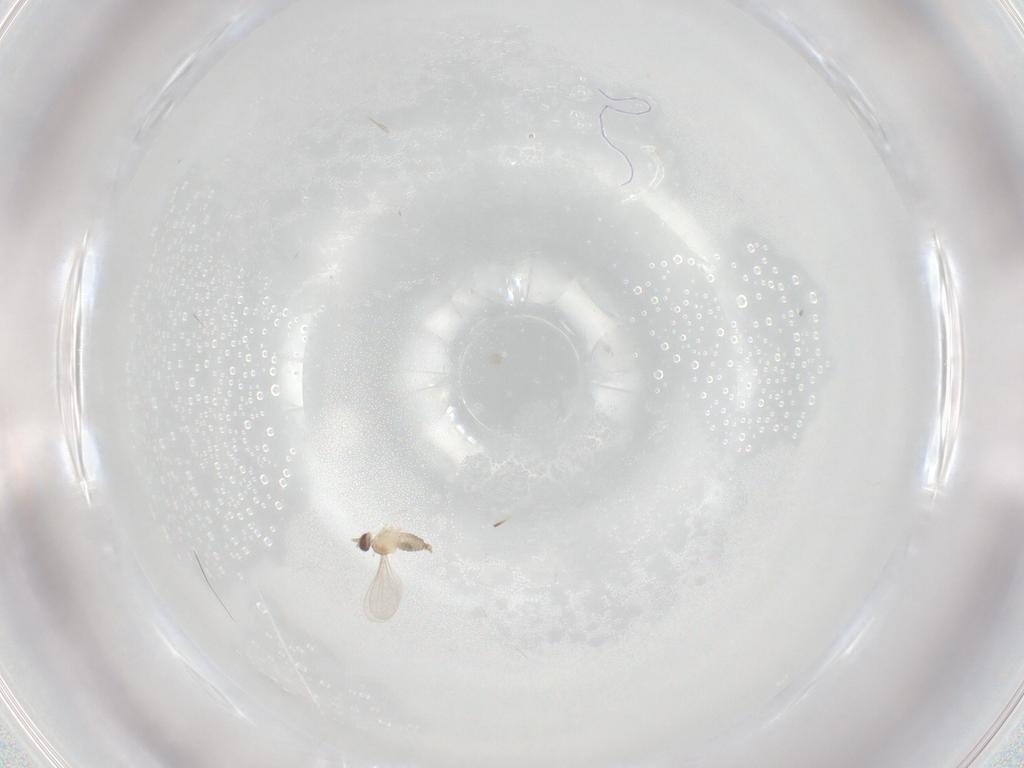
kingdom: Animalia
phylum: Arthropoda
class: Insecta
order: Diptera
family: Cecidomyiidae
